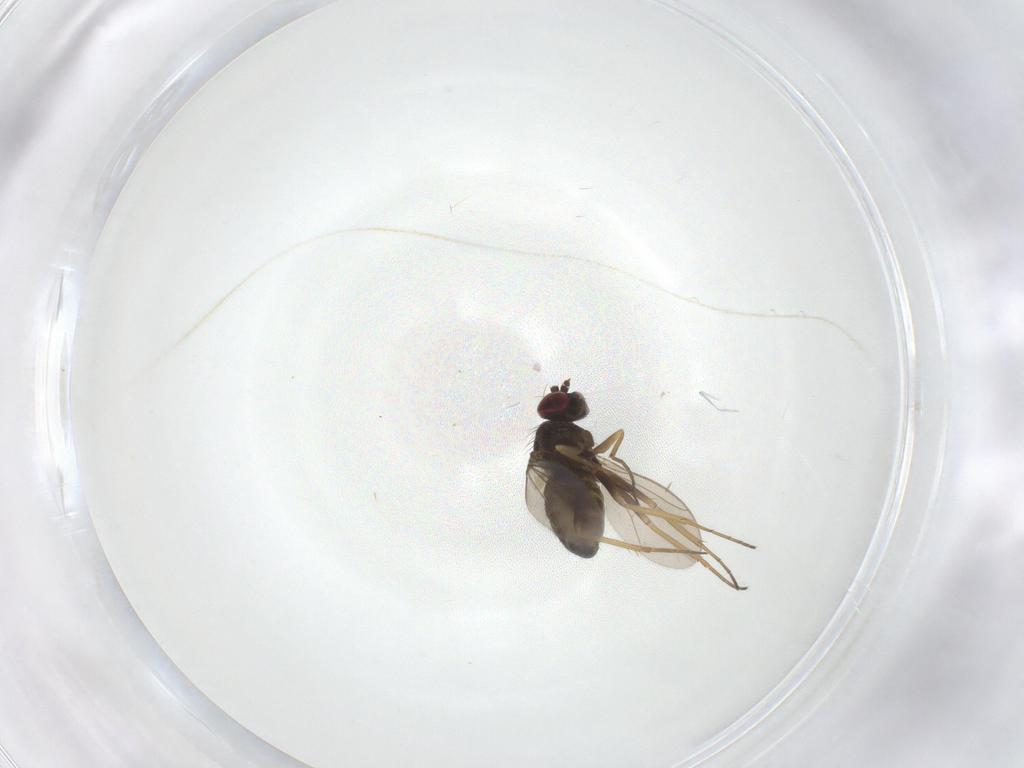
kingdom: Animalia
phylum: Arthropoda
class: Insecta
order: Diptera
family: Dolichopodidae
